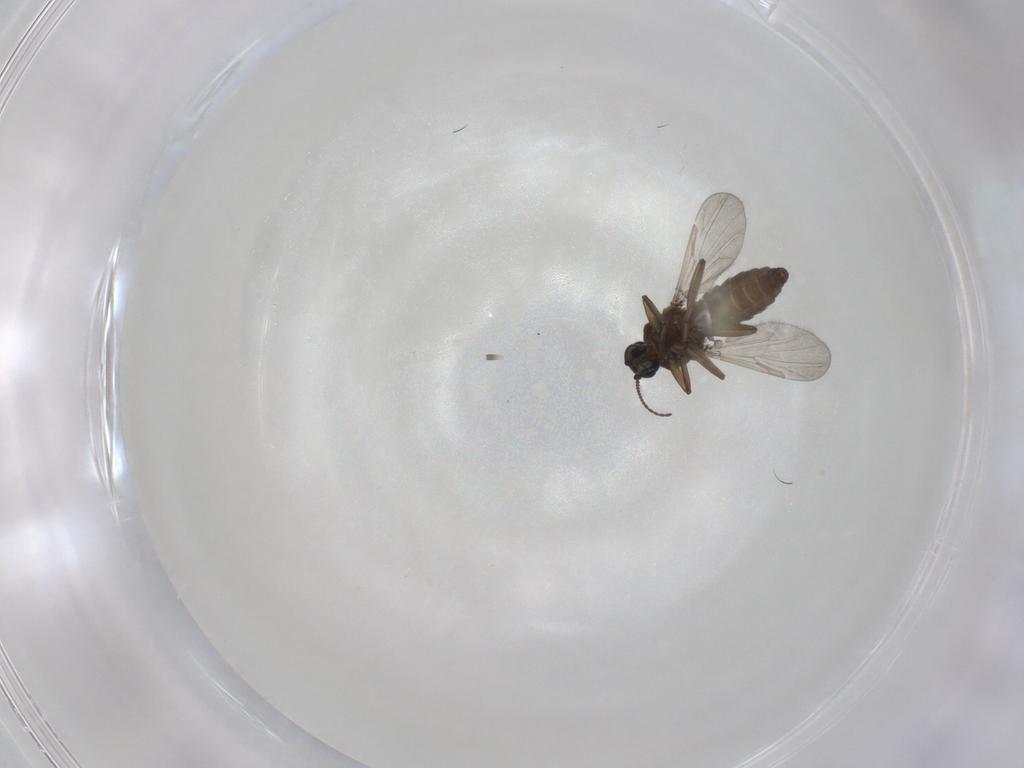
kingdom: Animalia
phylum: Arthropoda
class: Insecta
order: Diptera
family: Ceratopogonidae
